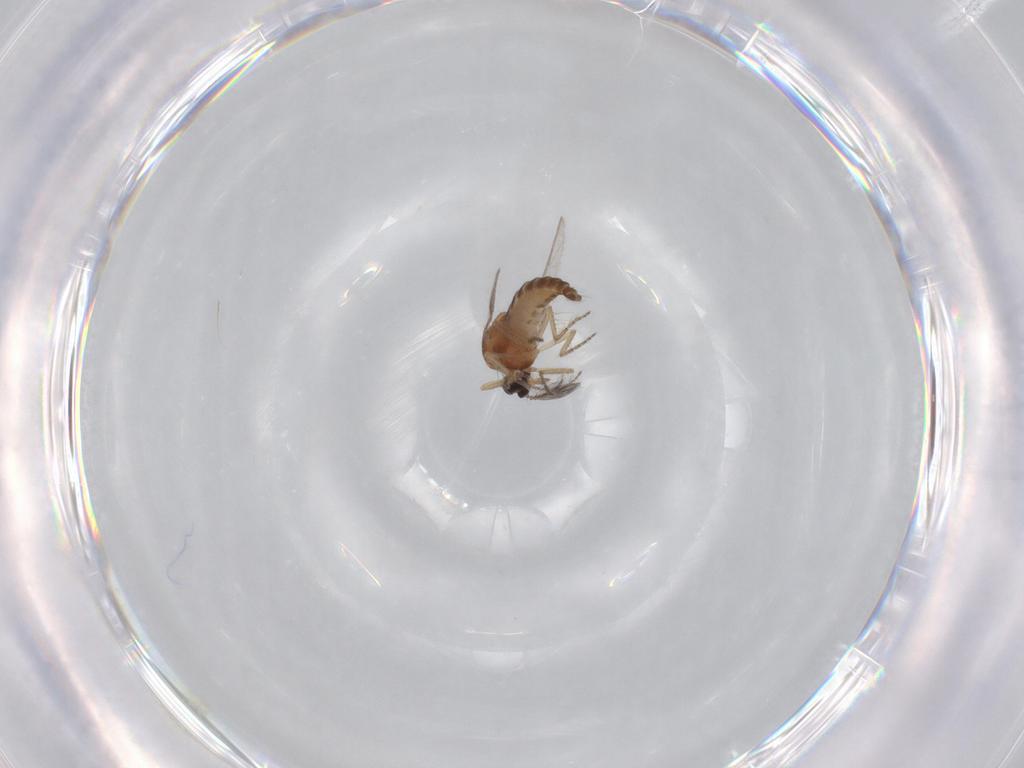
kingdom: Animalia
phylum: Arthropoda
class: Insecta
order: Diptera
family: Ceratopogonidae
